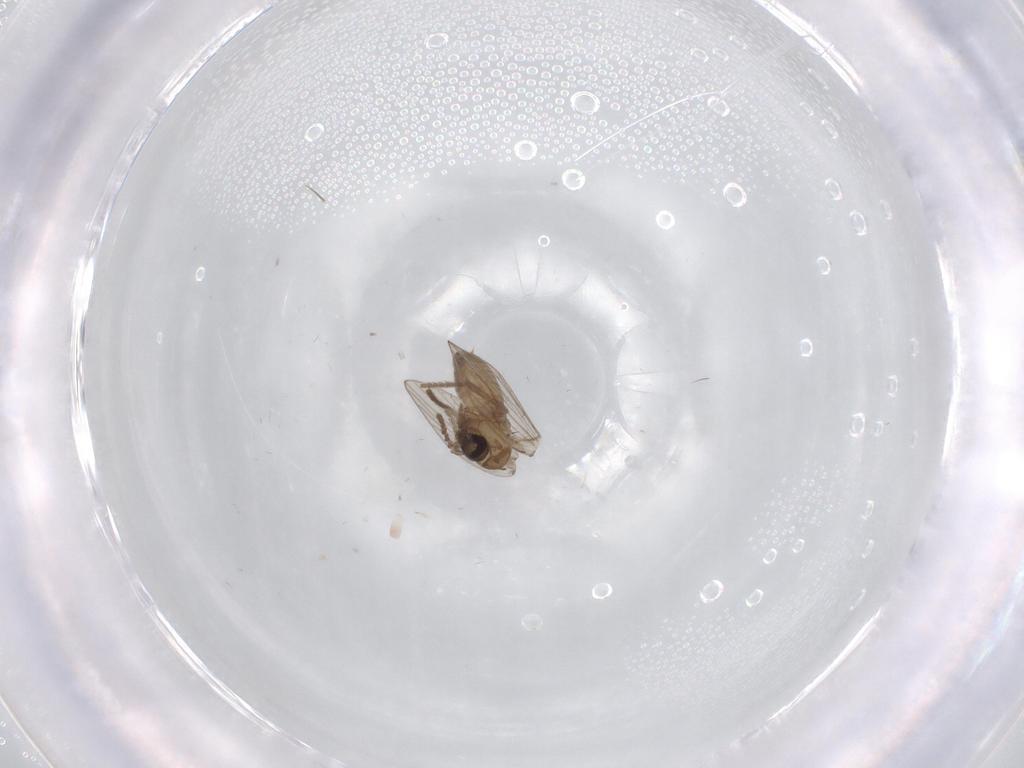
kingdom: Animalia
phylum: Arthropoda
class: Insecta
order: Diptera
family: Psychodidae
